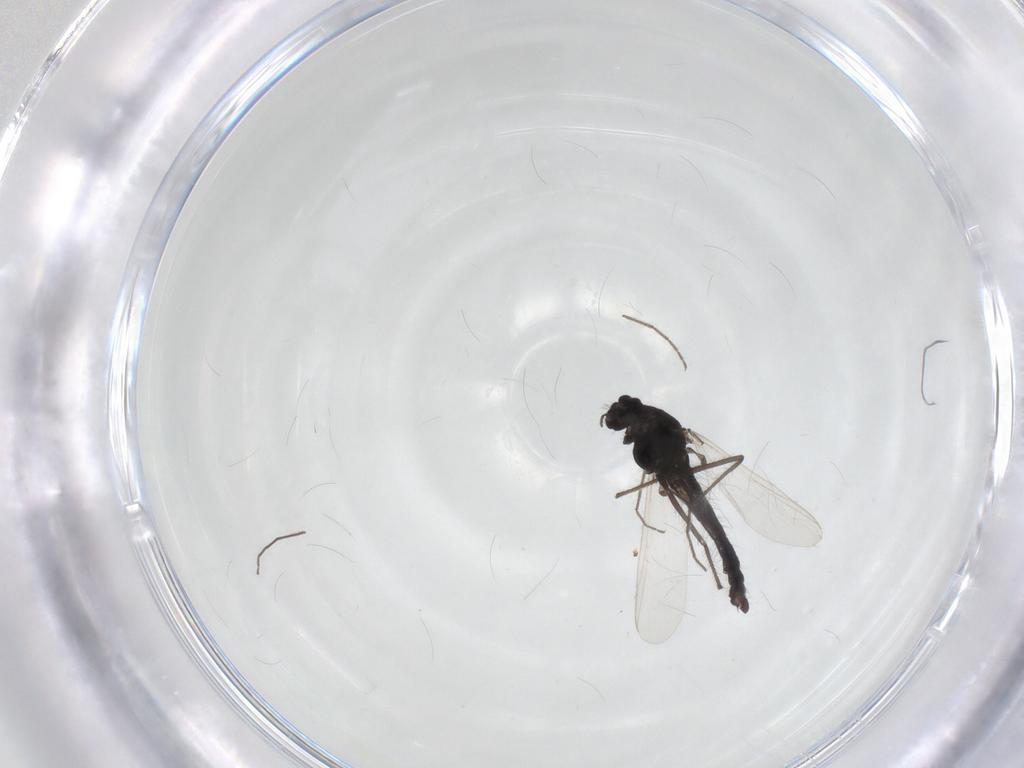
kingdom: Animalia
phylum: Arthropoda
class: Insecta
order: Diptera
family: Chironomidae
